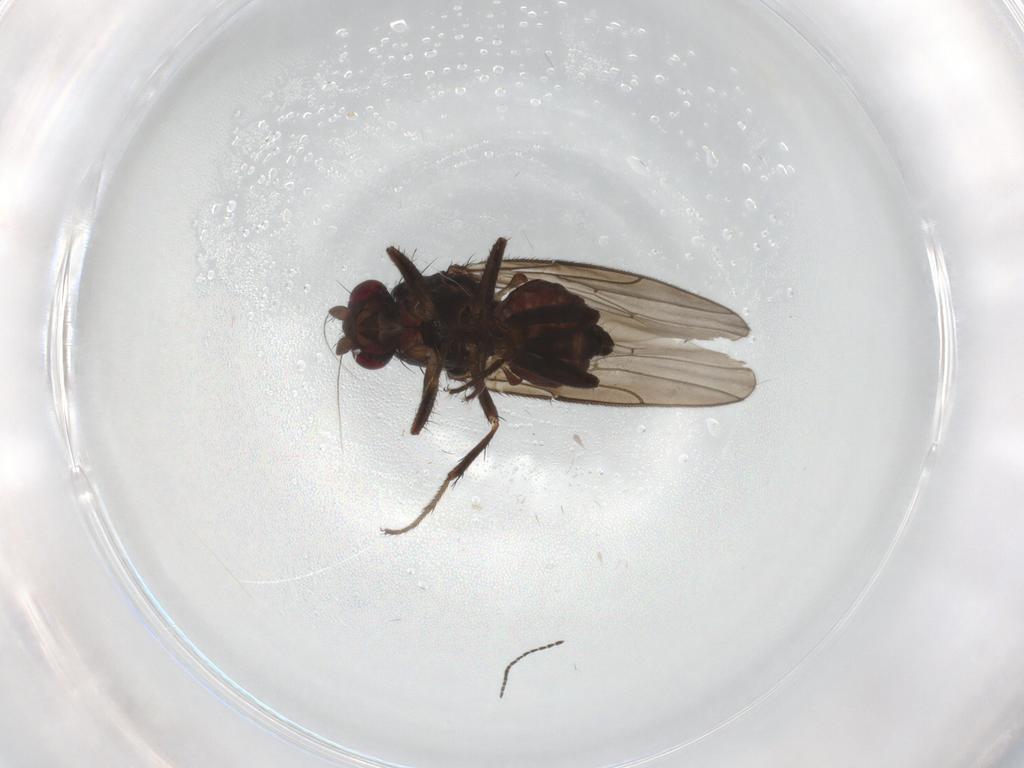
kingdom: Animalia
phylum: Arthropoda
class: Insecta
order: Diptera
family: Sphaeroceridae
